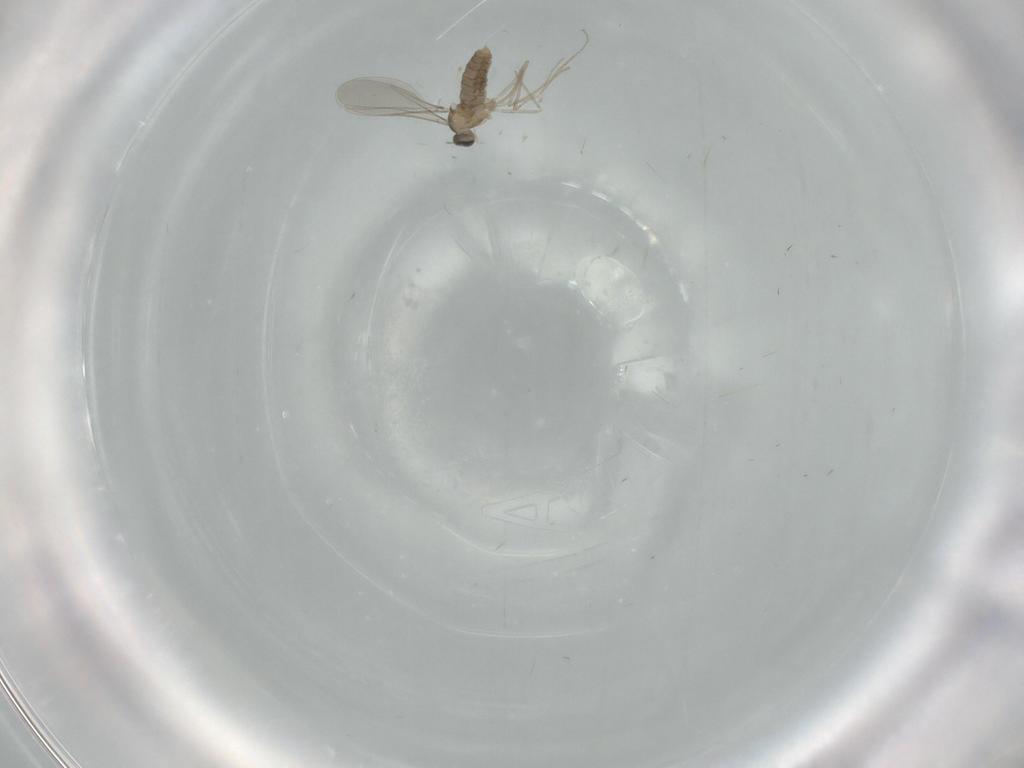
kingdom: Animalia
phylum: Arthropoda
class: Insecta
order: Diptera
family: Cecidomyiidae
